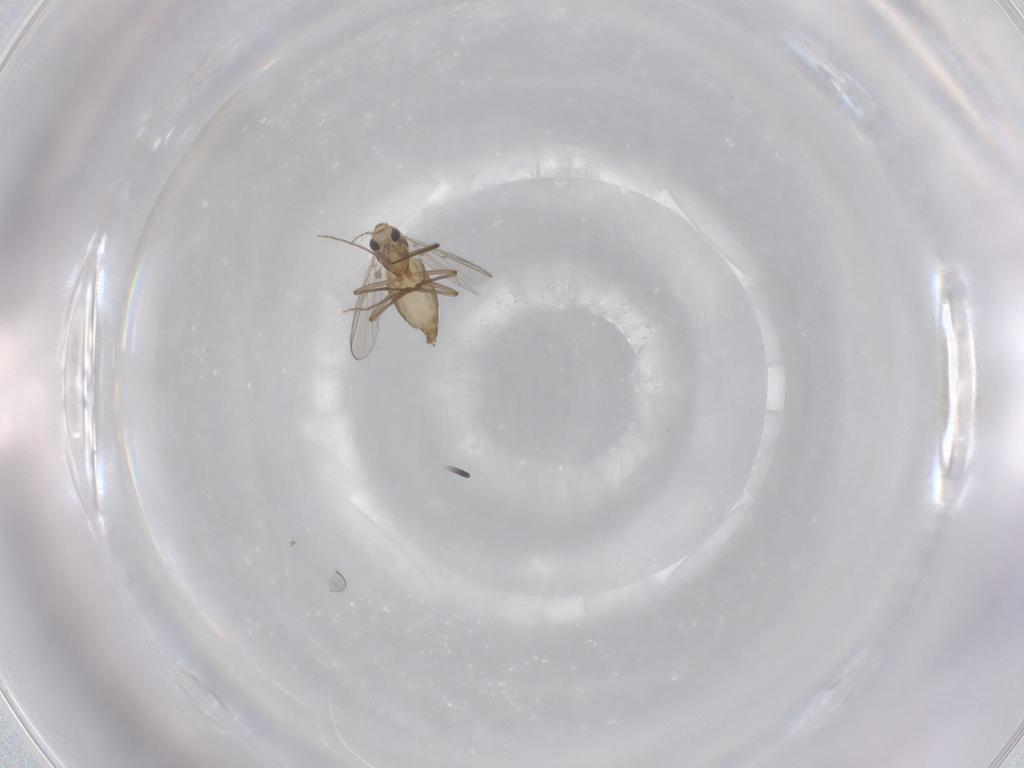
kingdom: Animalia
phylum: Arthropoda
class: Insecta
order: Diptera
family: Chironomidae
